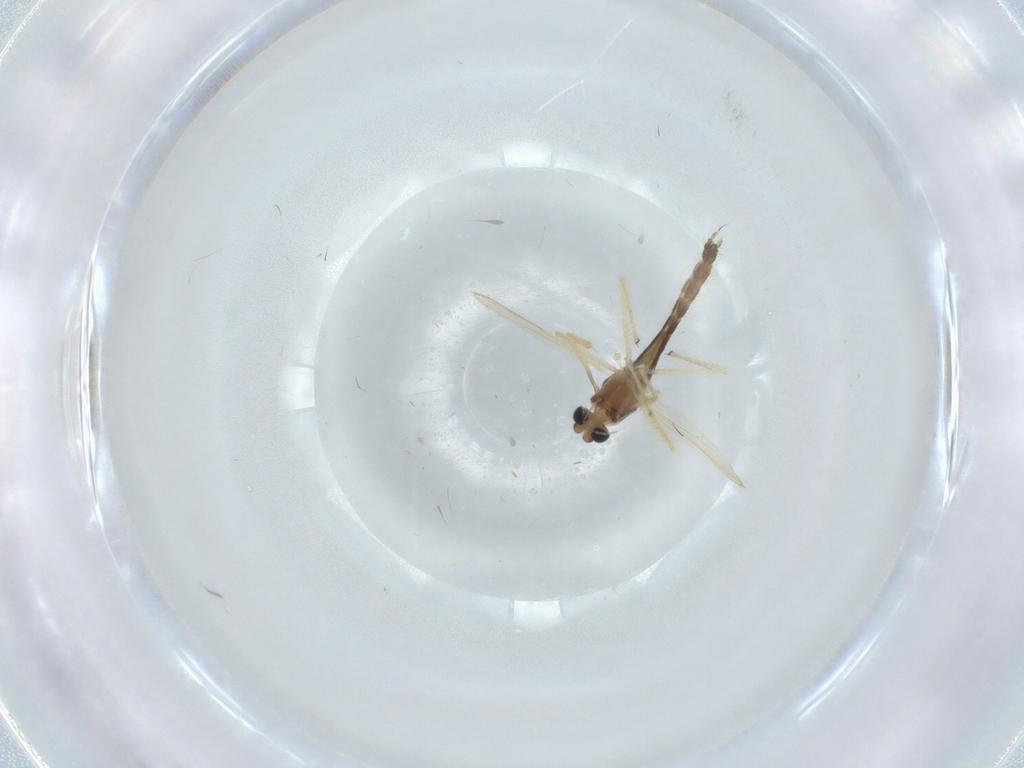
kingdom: Animalia
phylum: Arthropoda
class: Insecta
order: Diptera
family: Chironomidae
